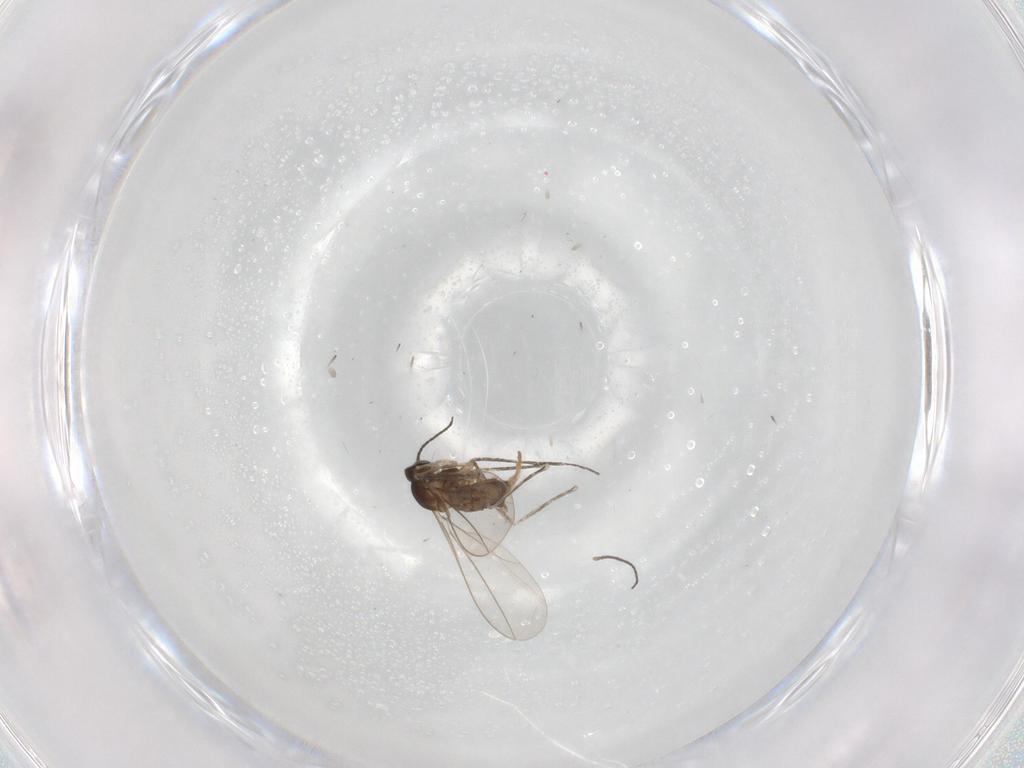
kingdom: Animalia
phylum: Arthropoda
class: Insecta
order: Diptera
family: Cecidomyiidae
